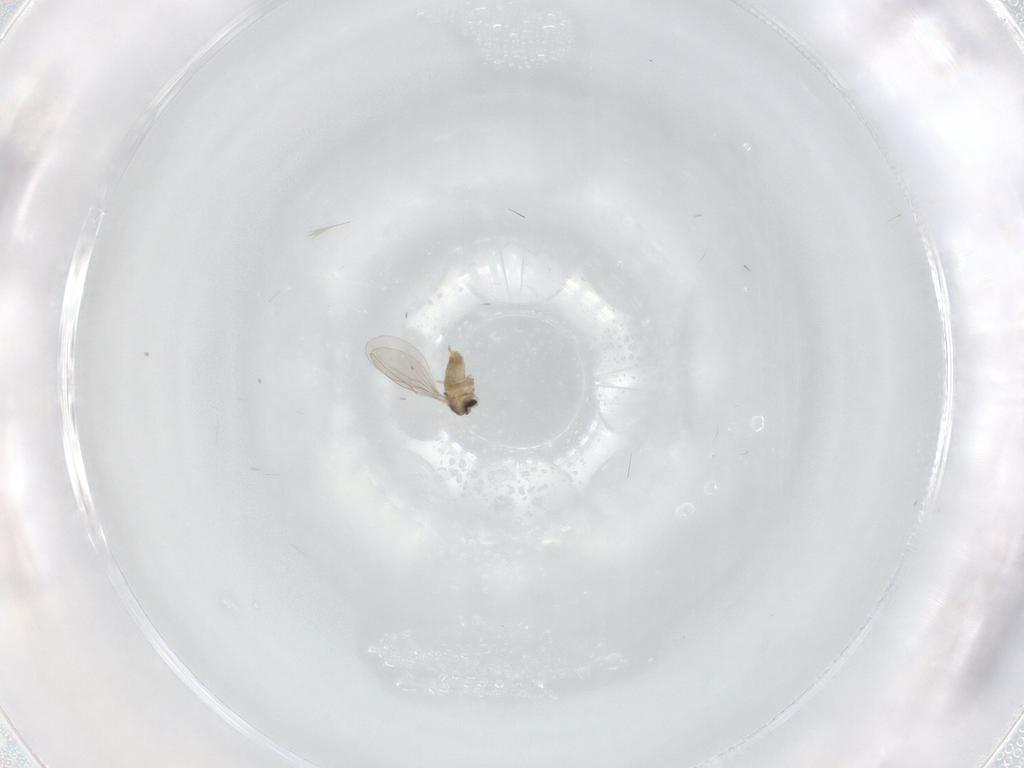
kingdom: Animalia
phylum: Arthropoda
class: Insecta
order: Diptera
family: Cecidomyiidae
